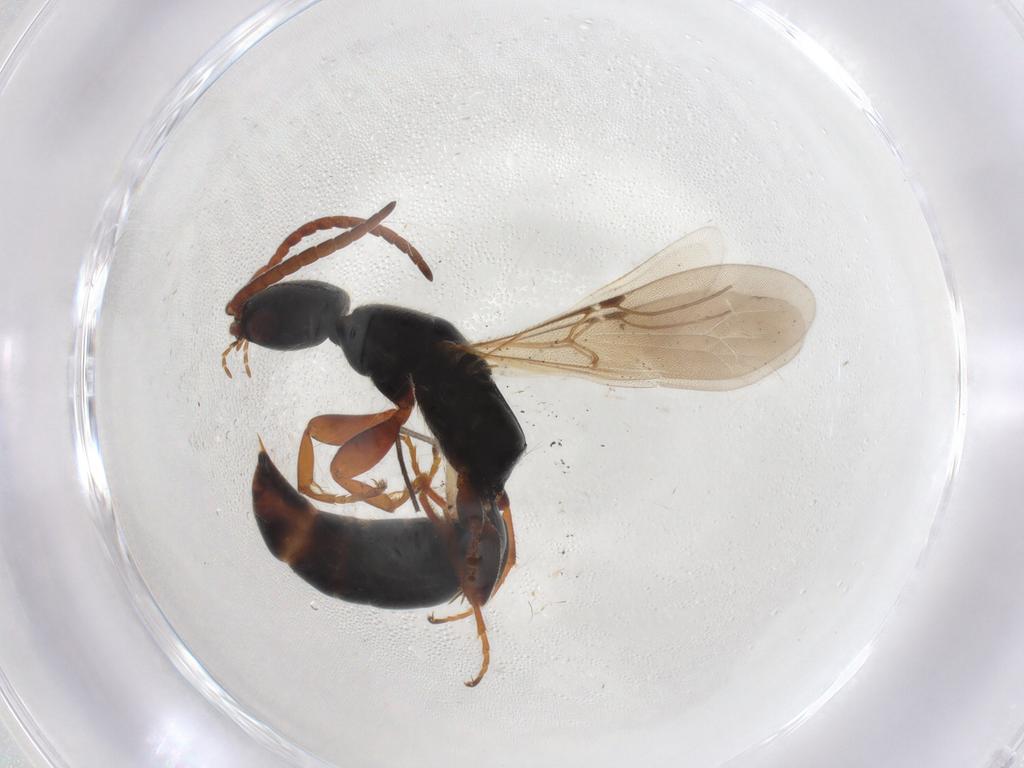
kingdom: Animalia
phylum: Arthropoda
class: Insecta
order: Hymenoptera
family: Bethylidae
